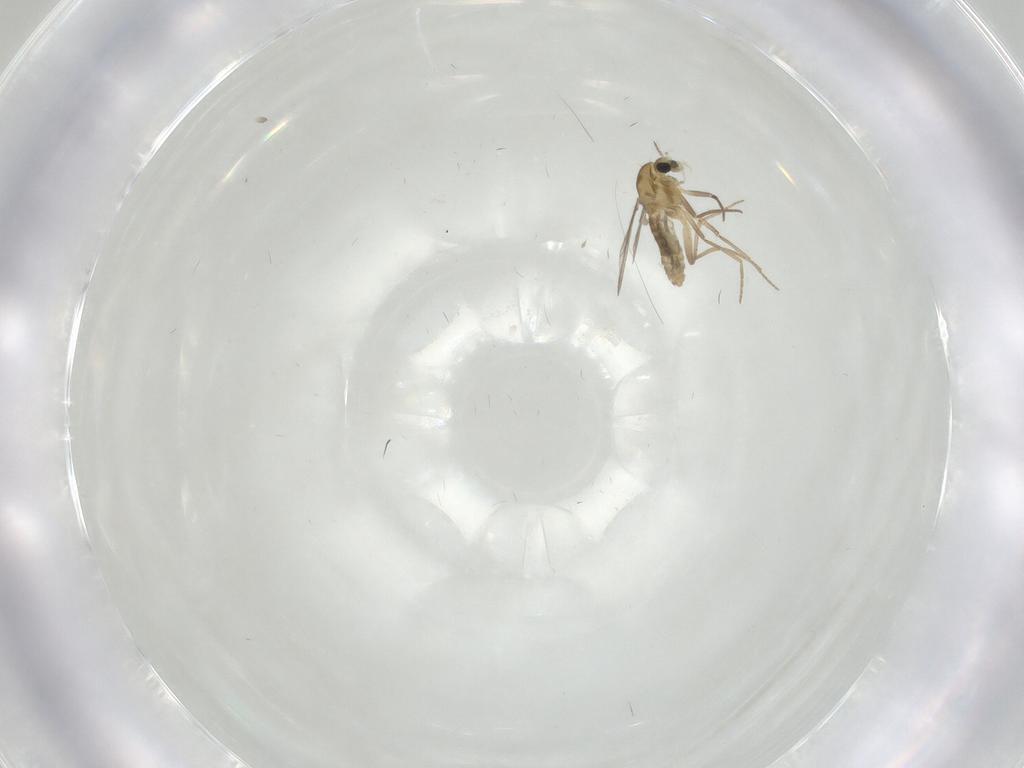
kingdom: Animalia
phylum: Arthropoda
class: Insecta
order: Diptera
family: Chironomidae
